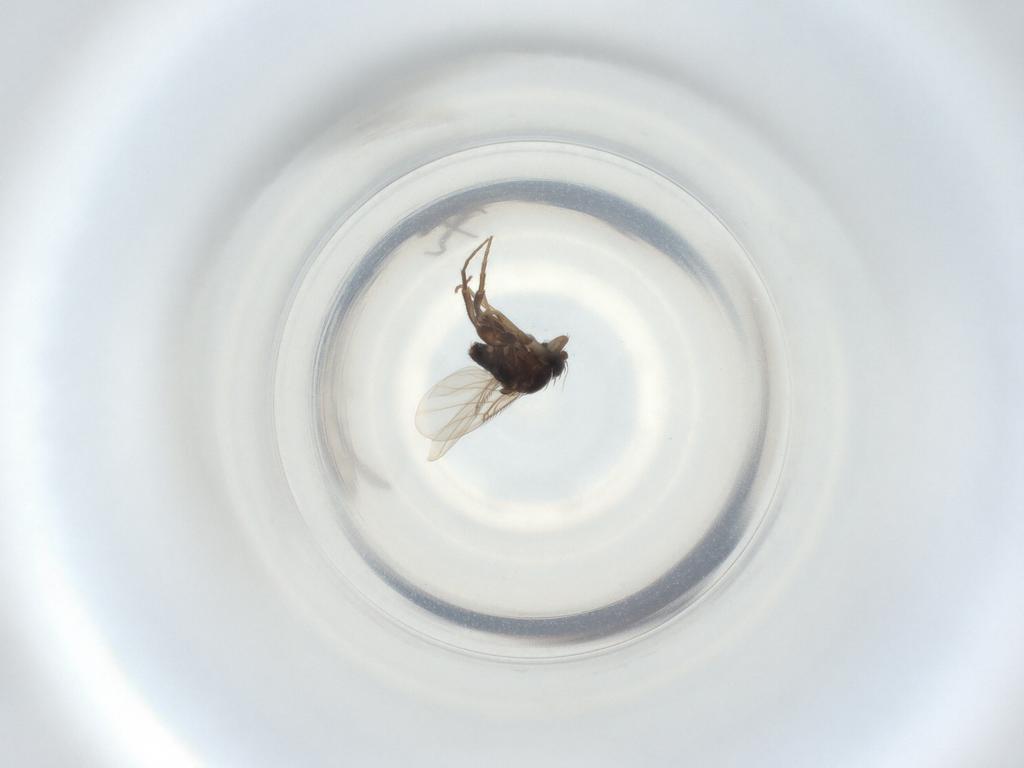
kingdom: Animalia
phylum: Arthropoda
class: Insecta
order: Diptera
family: Phoridae
